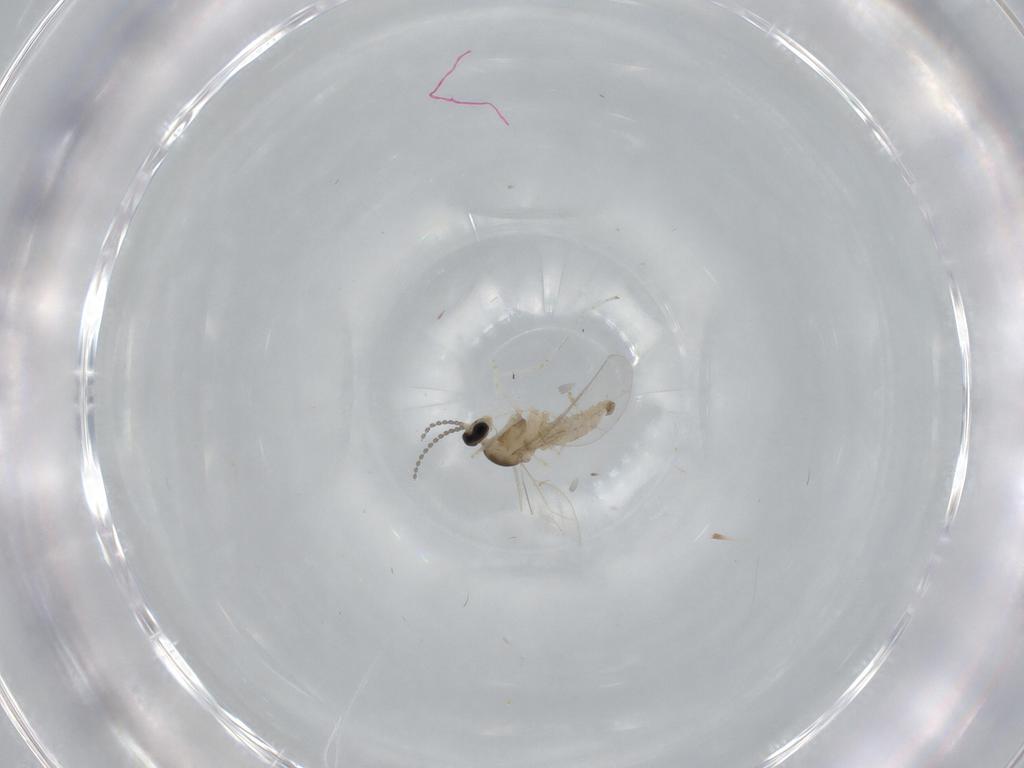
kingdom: Animalia
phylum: Arthropoda
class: Insecta
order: Diptera
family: Cecidomyiidae
